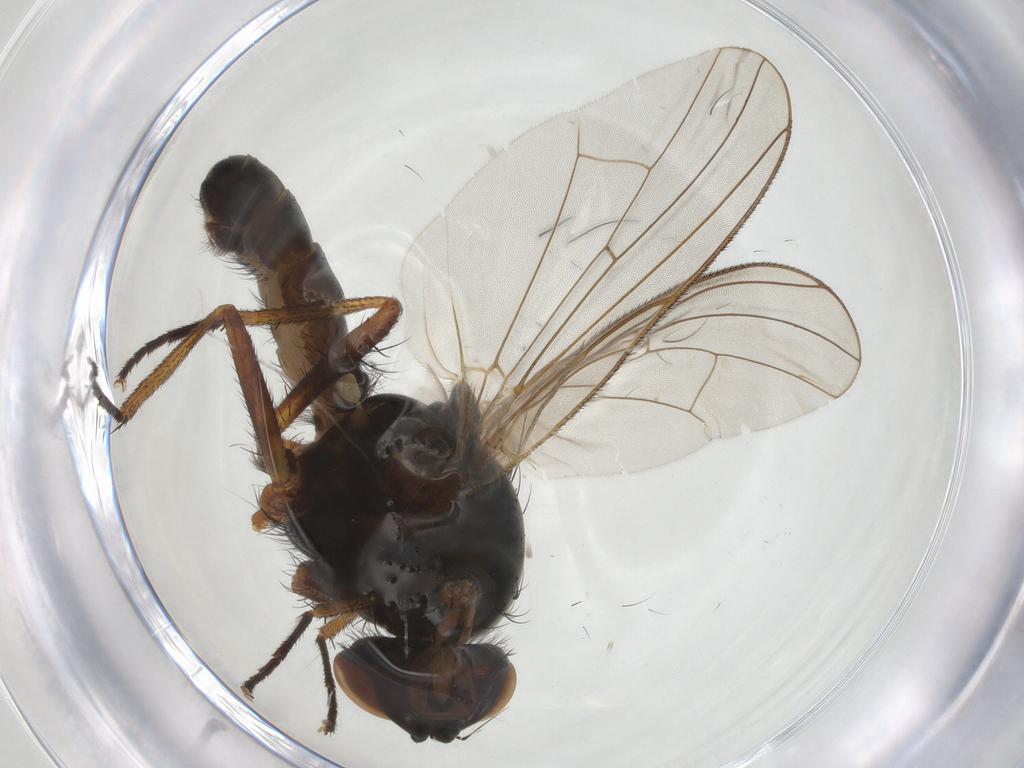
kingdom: Animalia
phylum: Arthropoda
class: Insecta
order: Diptera
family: Anthomyiidae
